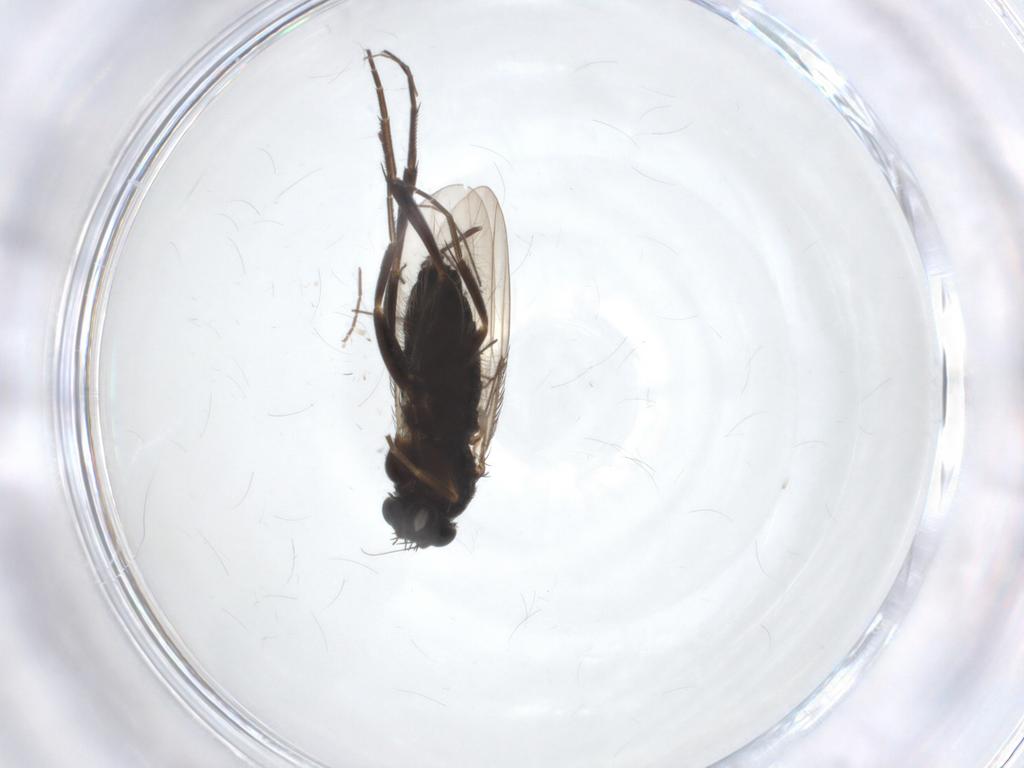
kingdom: Animalia
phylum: Arthropoda
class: Insecta
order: Diptera
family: Phoridae
